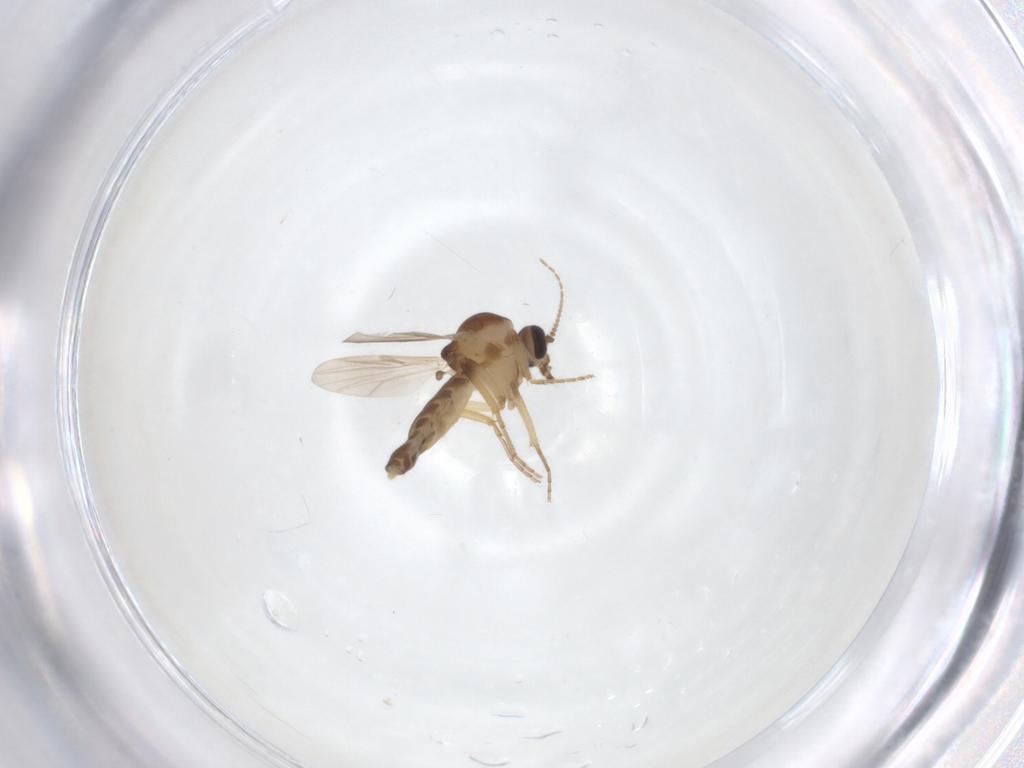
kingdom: Animalia
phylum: Arthropoda
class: Insecta
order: Diptera
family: Ceratopogonidae
